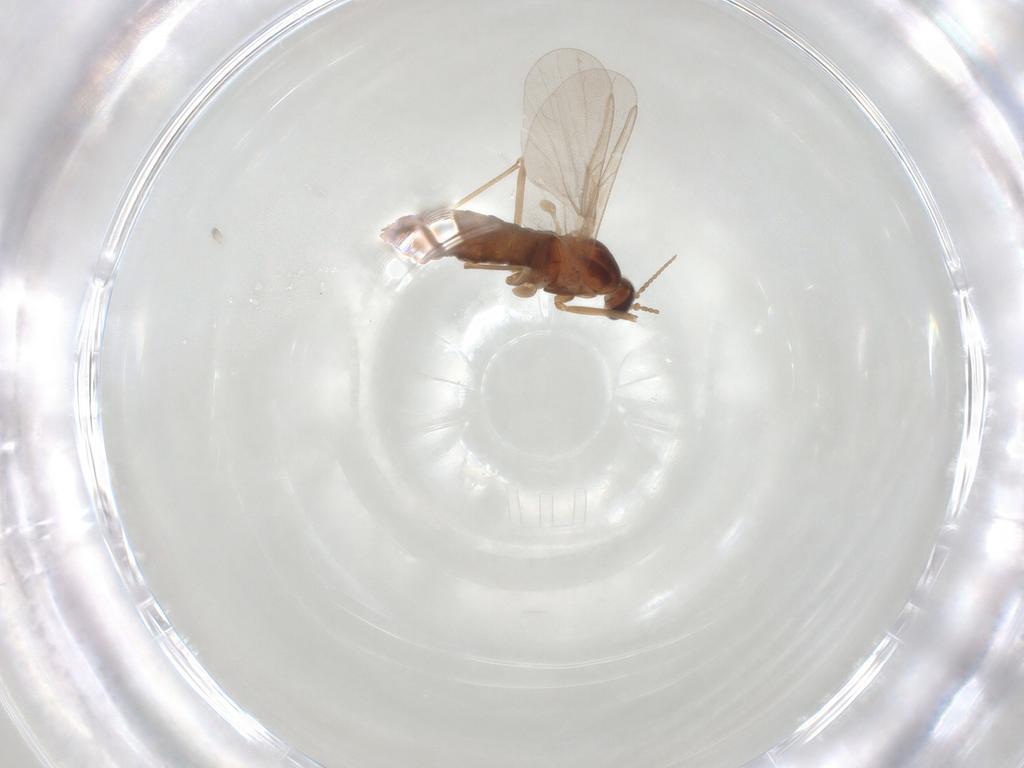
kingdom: Animalia
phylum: Arthropoda
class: Insecta
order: Diptera
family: Cecidomyiidae
